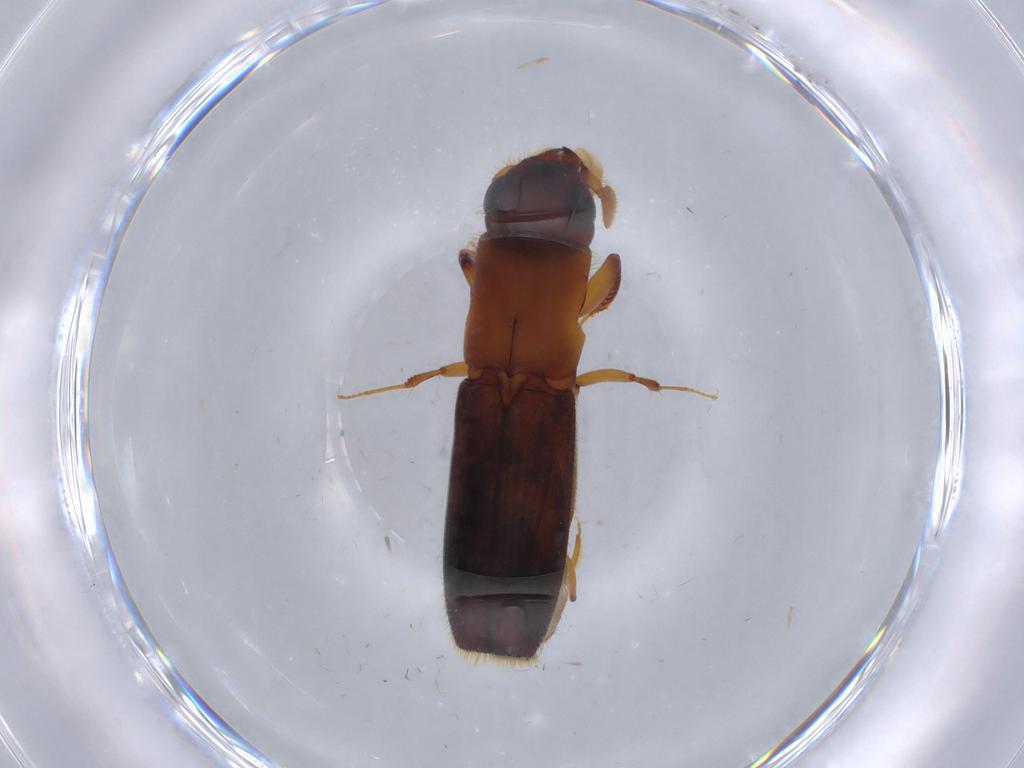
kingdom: Animalia
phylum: Arthropoda
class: Insecta
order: Coleoptera
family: Curculionidae
